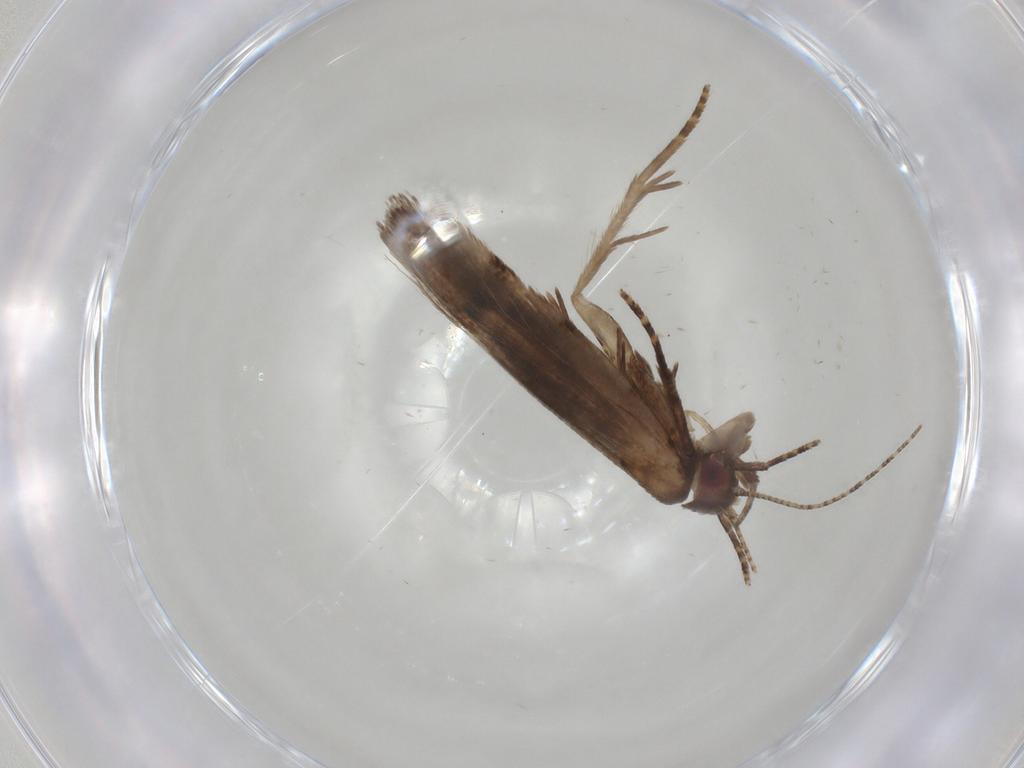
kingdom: Animalia
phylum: Arthropoda
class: Insecta
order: Lepidoptera
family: Gelechiidae
